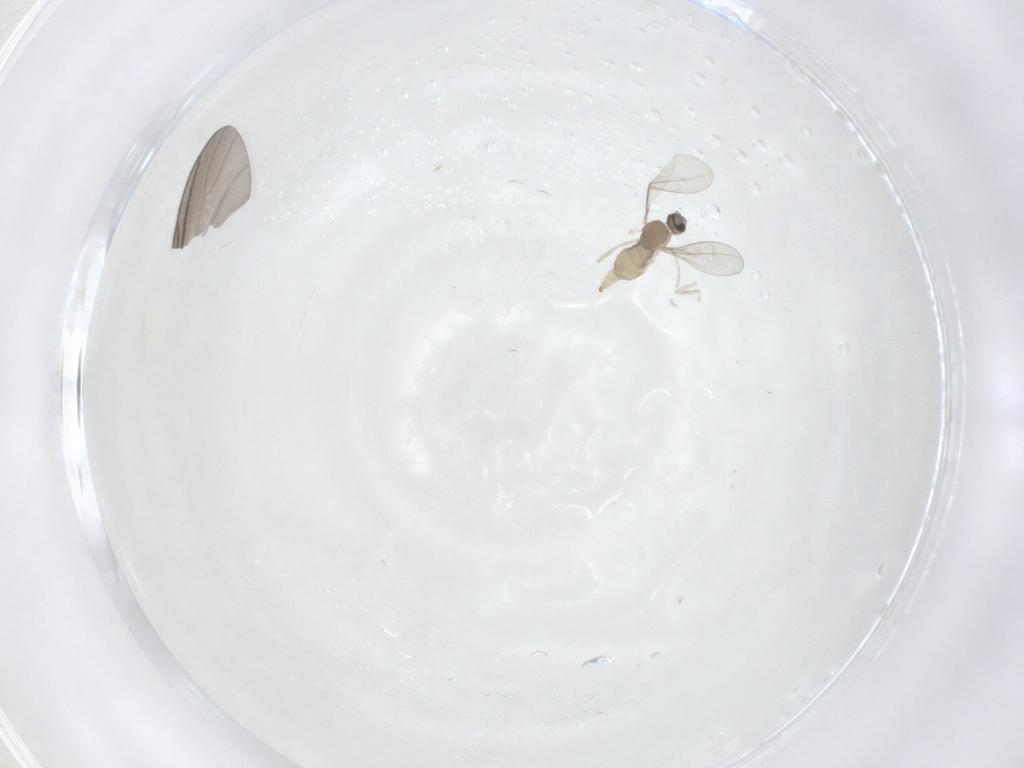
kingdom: Animalia
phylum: Arthropoda
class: Insecta
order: Diptera
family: Cecidomyiidae
